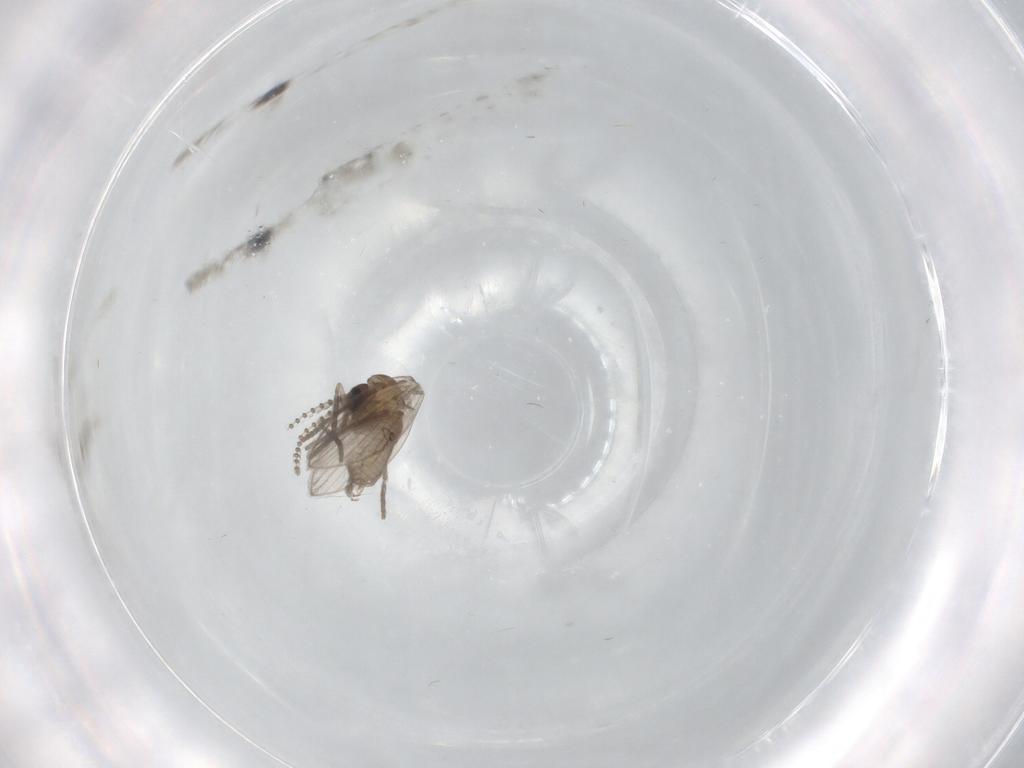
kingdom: Animalia
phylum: Arthropoda
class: Insecta
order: Diptera
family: Psychodidae
